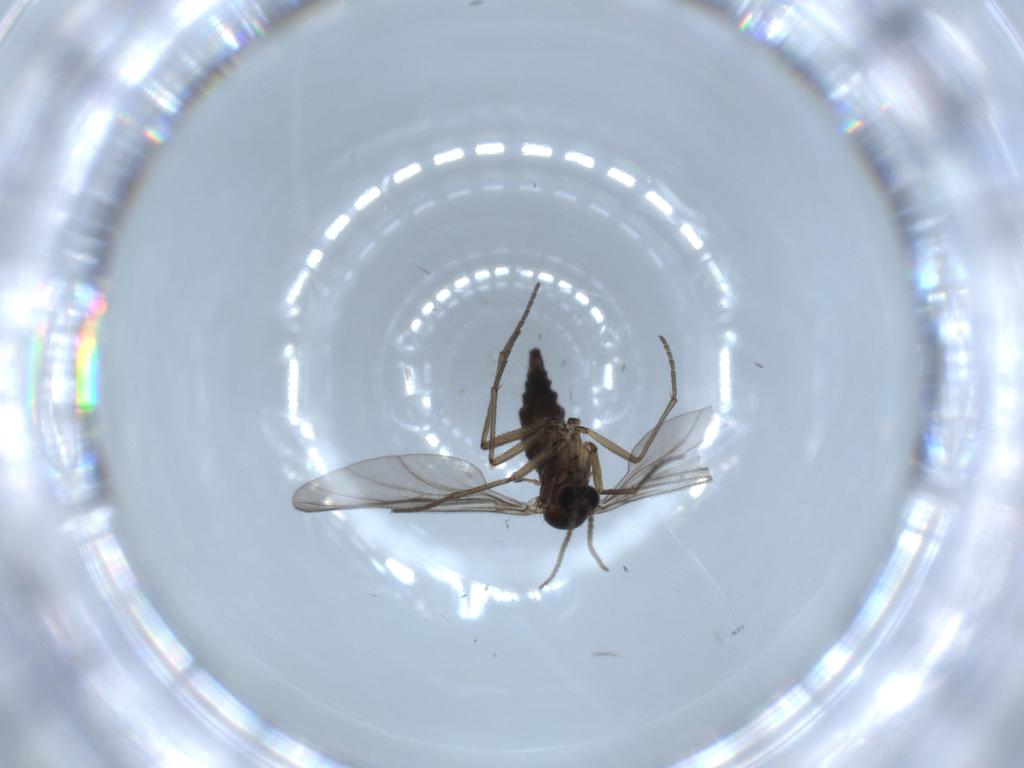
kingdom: Animalia
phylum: Arthropoda
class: Insecta
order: Diptera
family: Sciaridae
